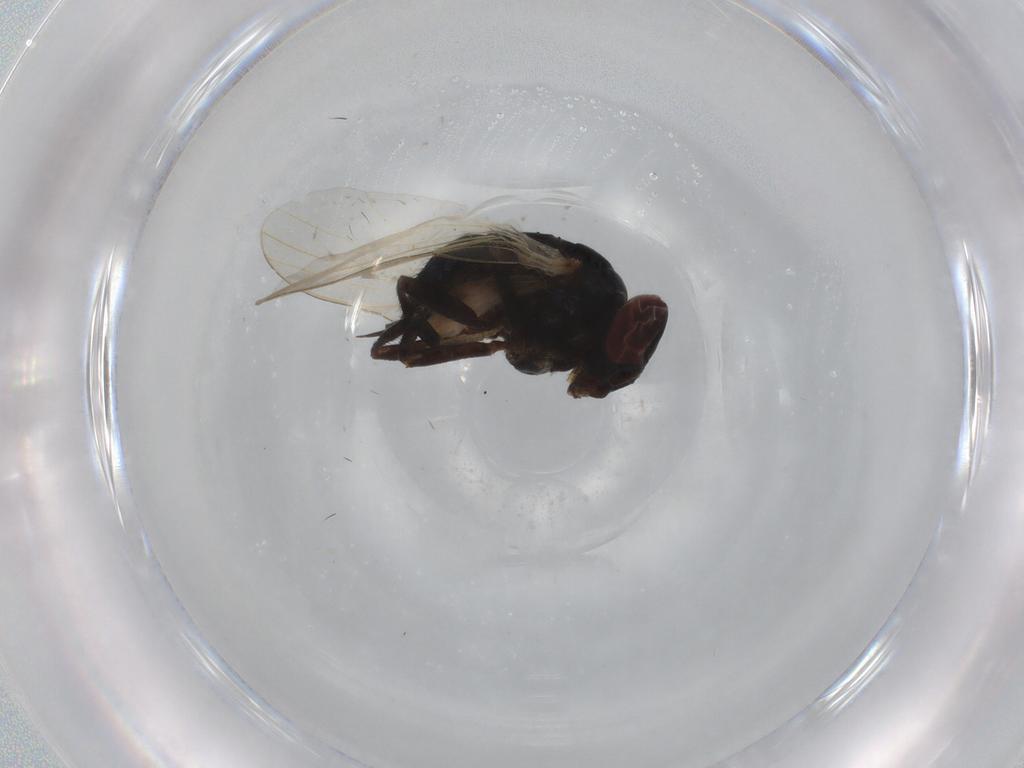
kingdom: Animalia
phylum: Arthropoda
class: Insecta
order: Diptera
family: Lonchaeidae
